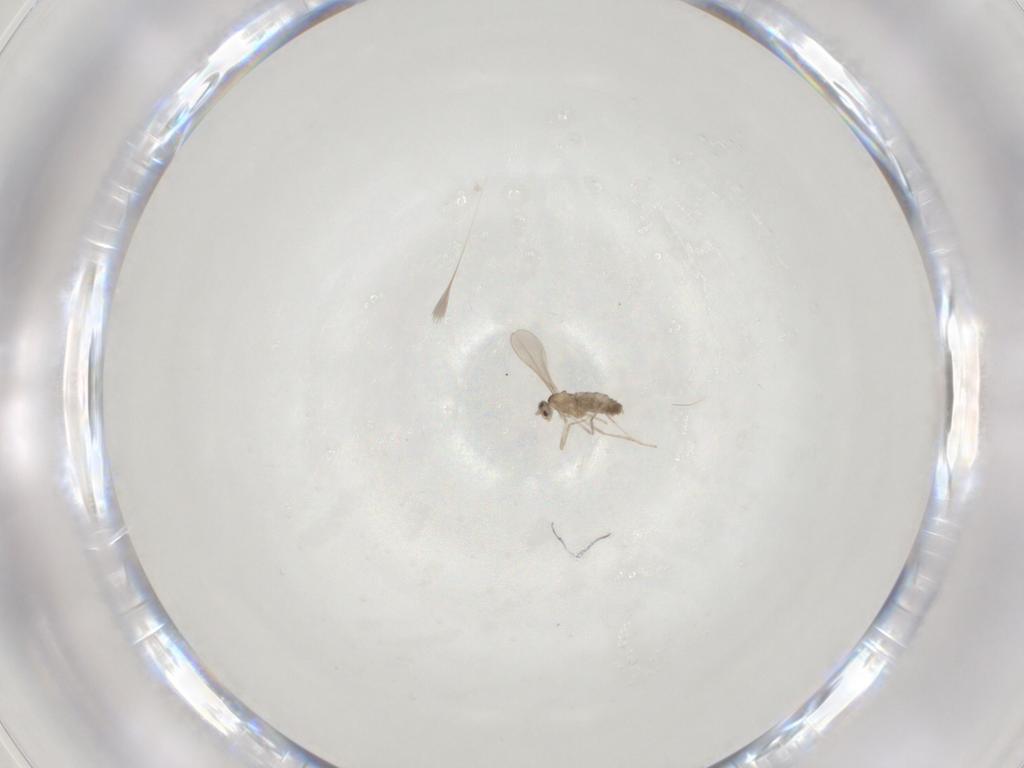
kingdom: Animalia
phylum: Arthropoda
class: Insecta
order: Diptera
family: Cecidomyiidae
